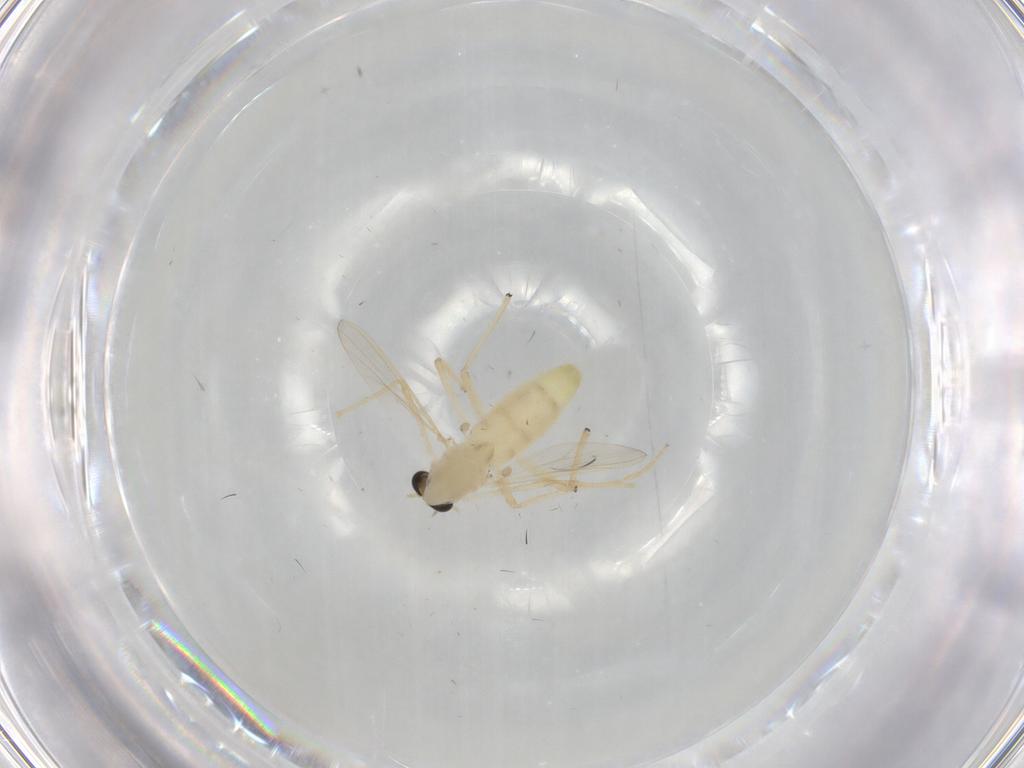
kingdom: Animalia
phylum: Arthropoda
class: Insecta
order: Diptera
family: Chironomidae
